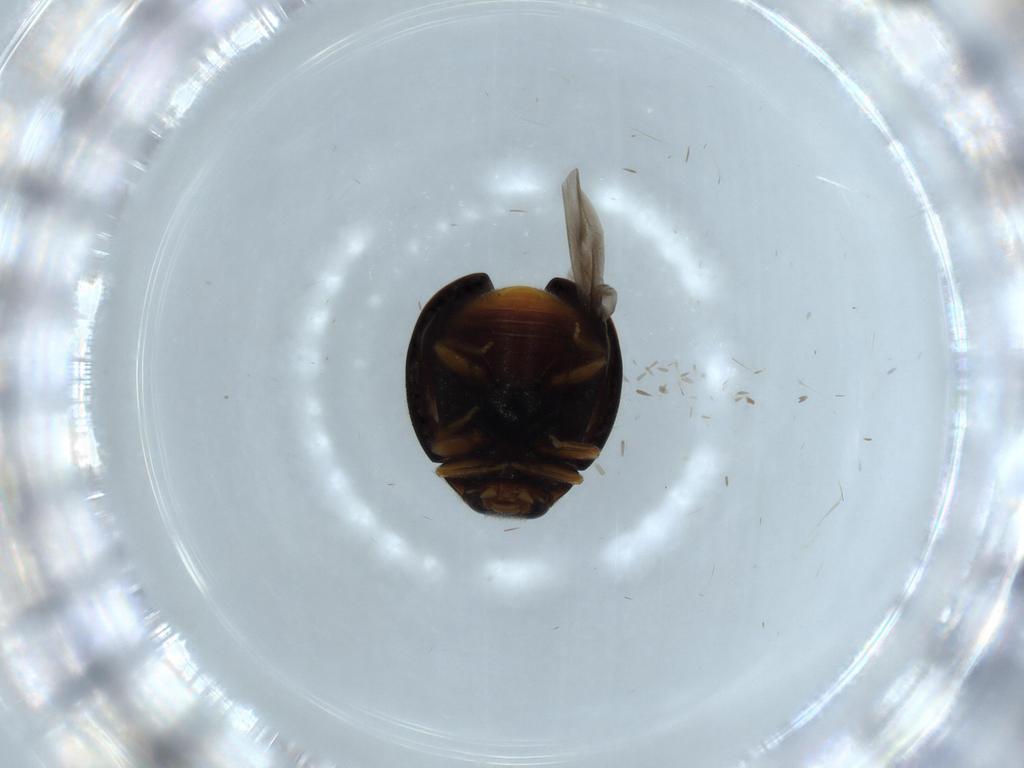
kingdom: Animalia
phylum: Arthropoda
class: Insecta
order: Coleoptera
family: Coccinellidae
